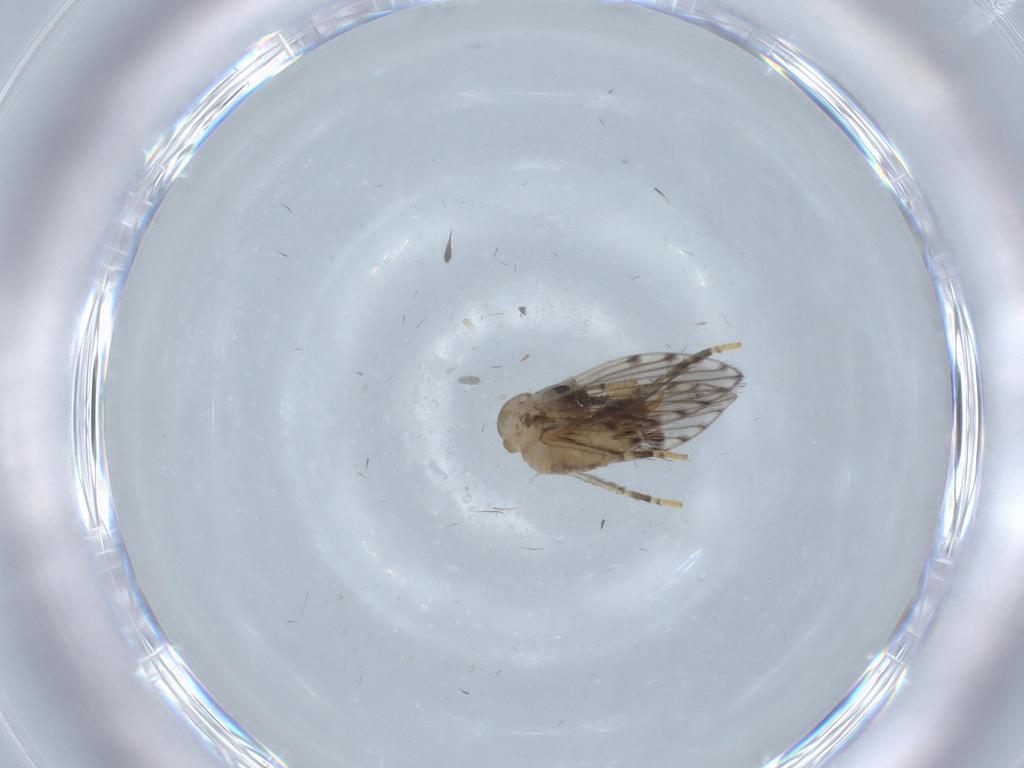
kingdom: Animalia
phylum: Arthropoda
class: Insecta
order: Diptera
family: Psychodidae
